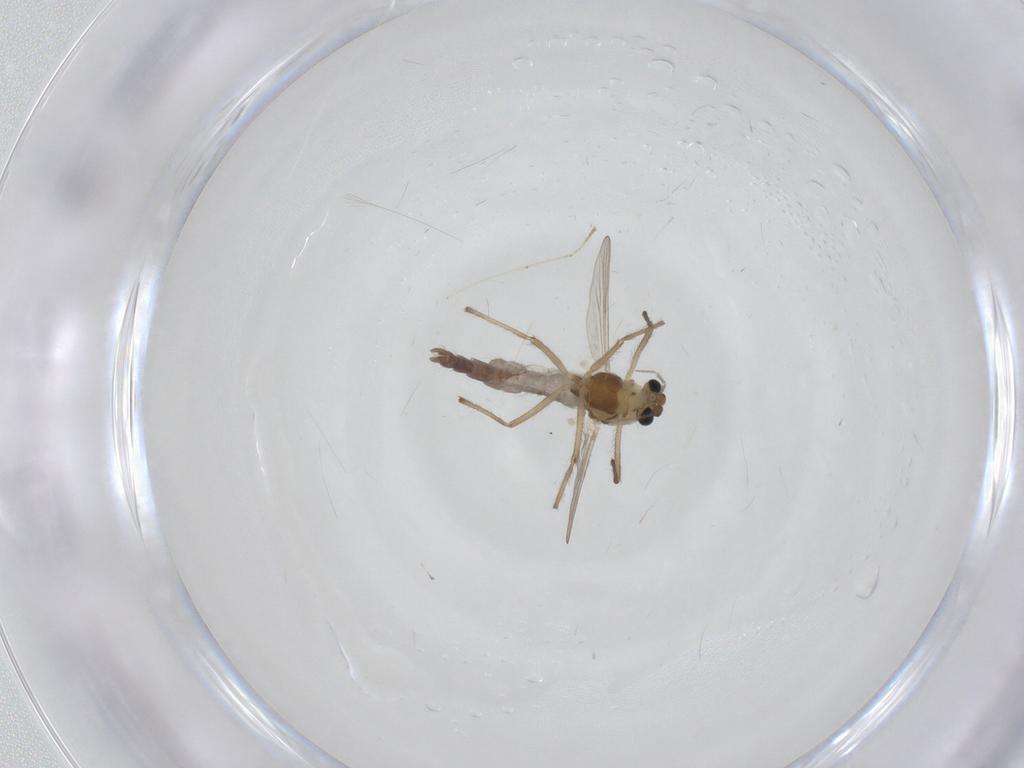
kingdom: Animalia
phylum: Arthropoda
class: Insecta
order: Diptera
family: Chironomidae
